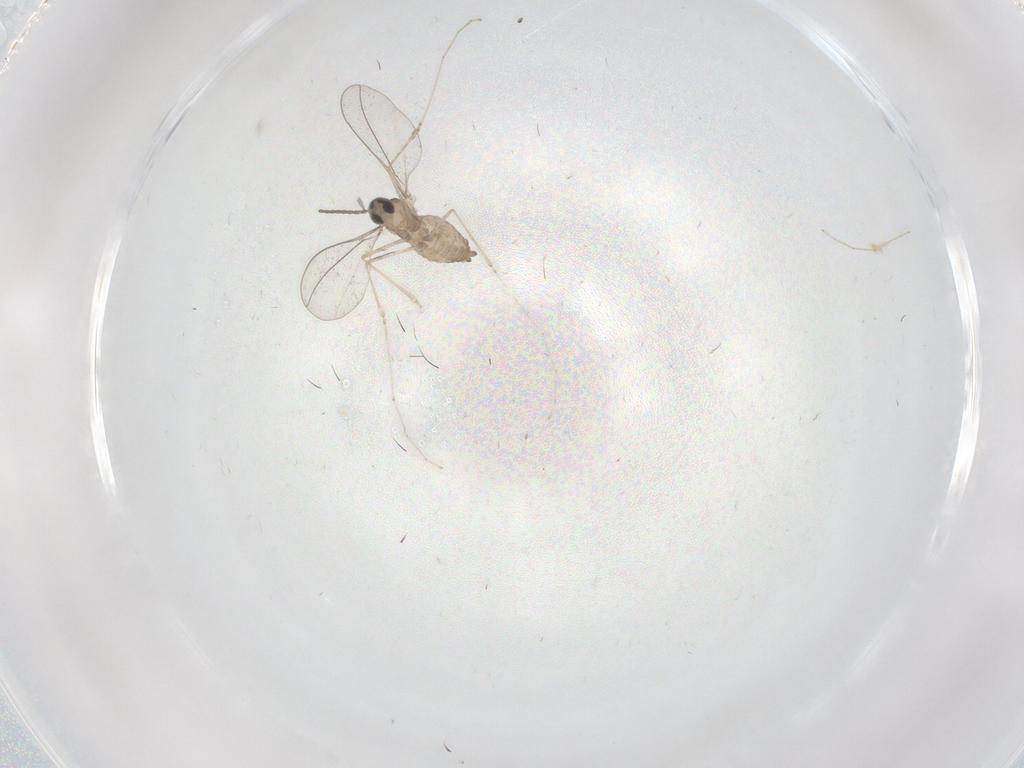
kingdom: Animalia
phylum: Arthropoda
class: Insecta
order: Diptera
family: Cecidomyiidae
